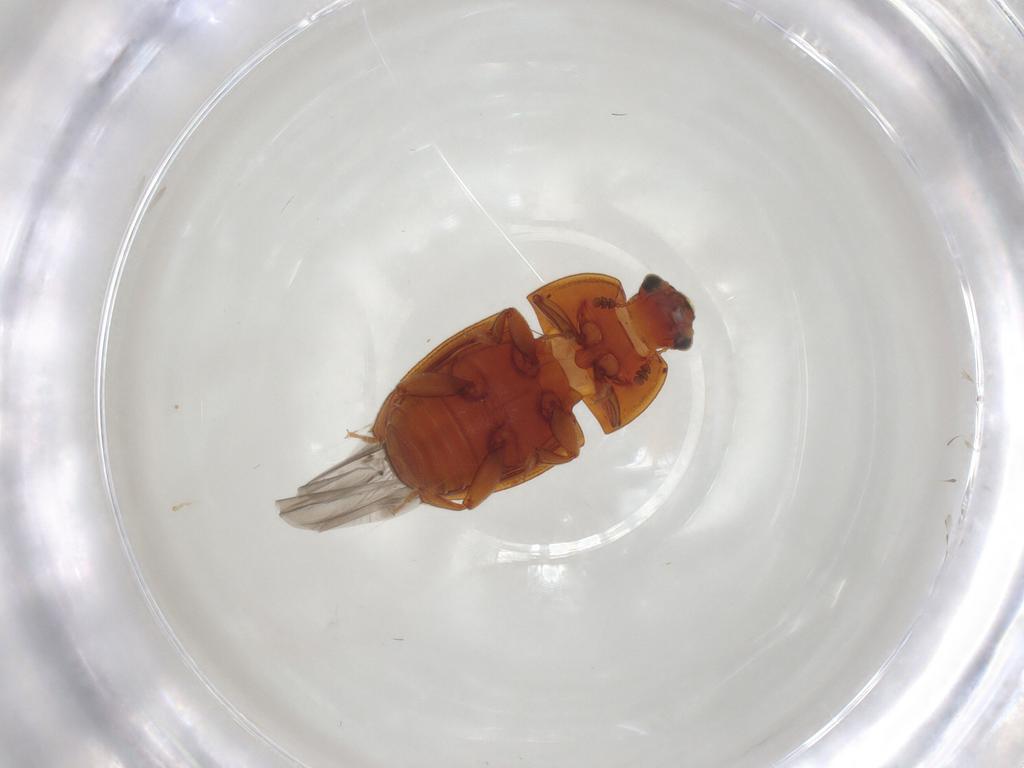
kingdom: Animalia
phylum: Arthropoda
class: Insecta
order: Coleoptera
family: Nitidulidae
